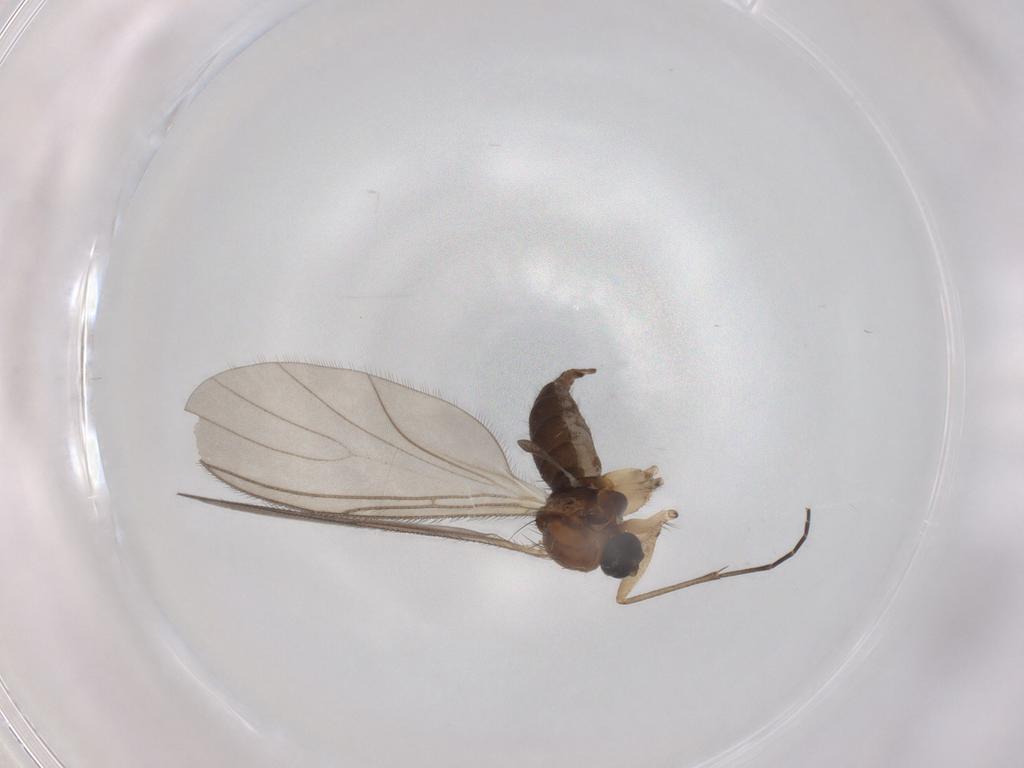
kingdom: Animalia
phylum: Arthropoda
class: Insecta
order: Diptera
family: Sciaridae
